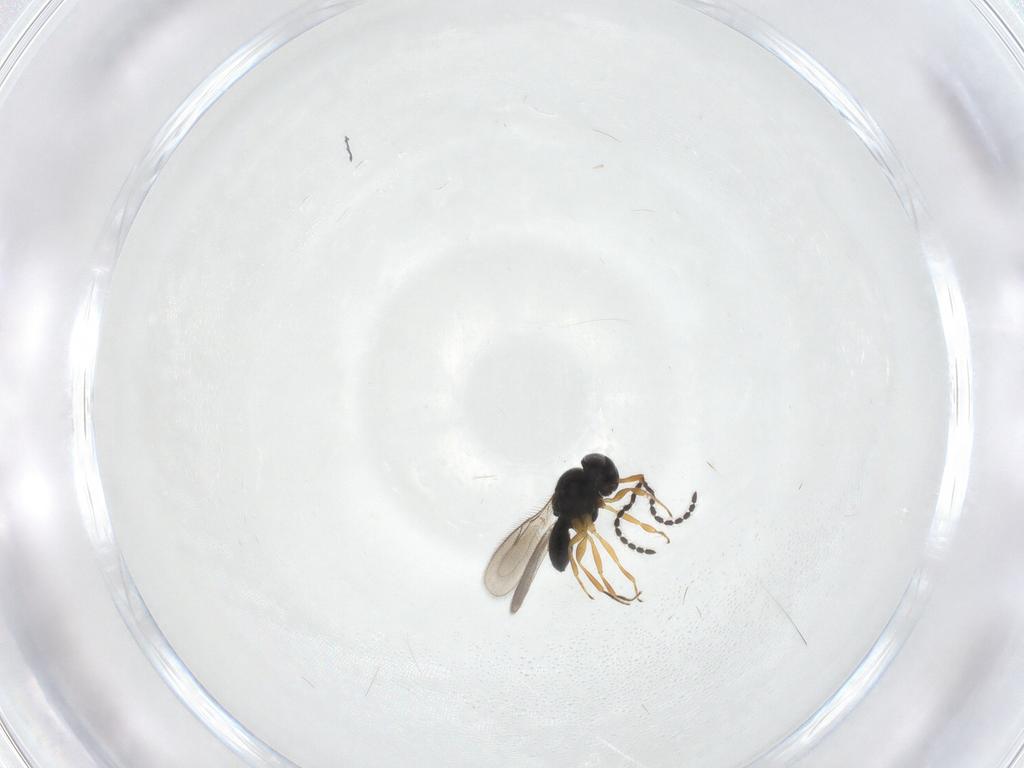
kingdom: Animalia
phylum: Arthropoda
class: Insecta
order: Hymenoptera
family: Scelionidae
